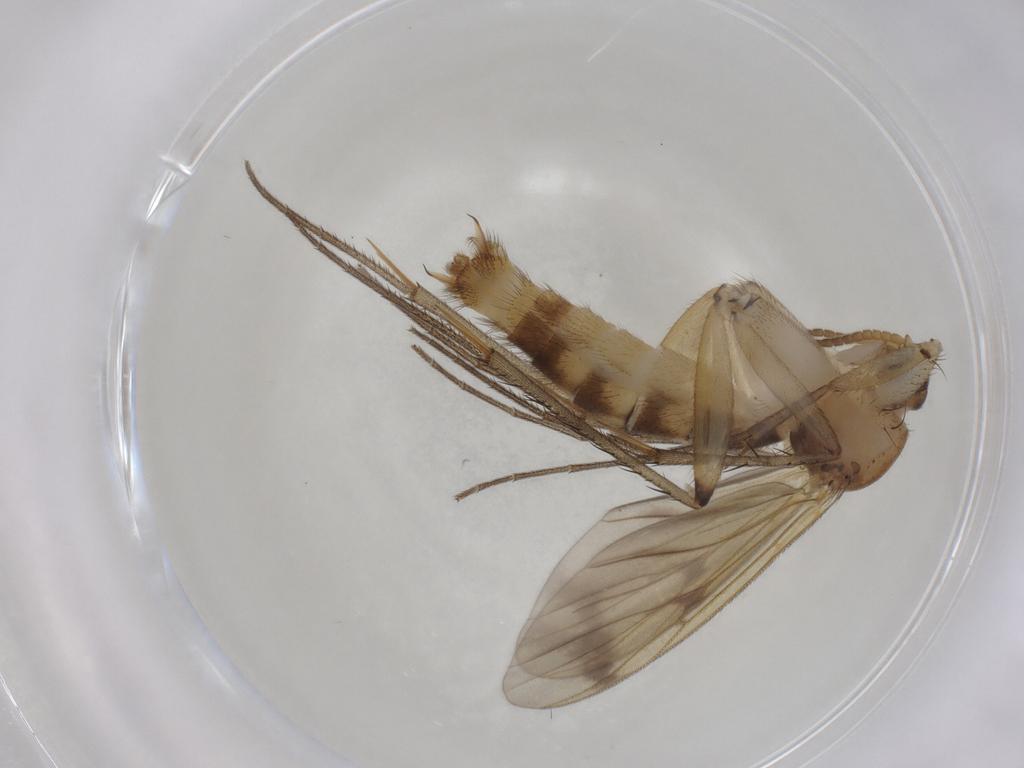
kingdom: Animalia
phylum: Arthropoda
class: Insecta
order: Diptera
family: Mycetophilidae
